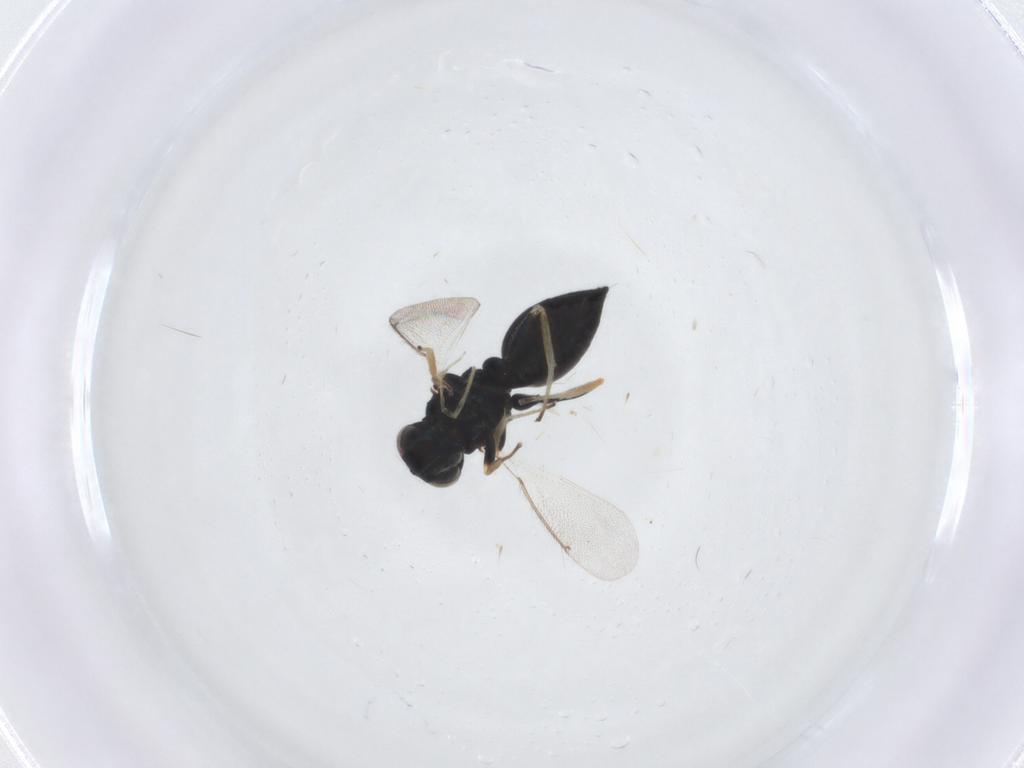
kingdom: Animalia
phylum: Arthropoda
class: Insecta
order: Hymenoptera
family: Eulophidae
